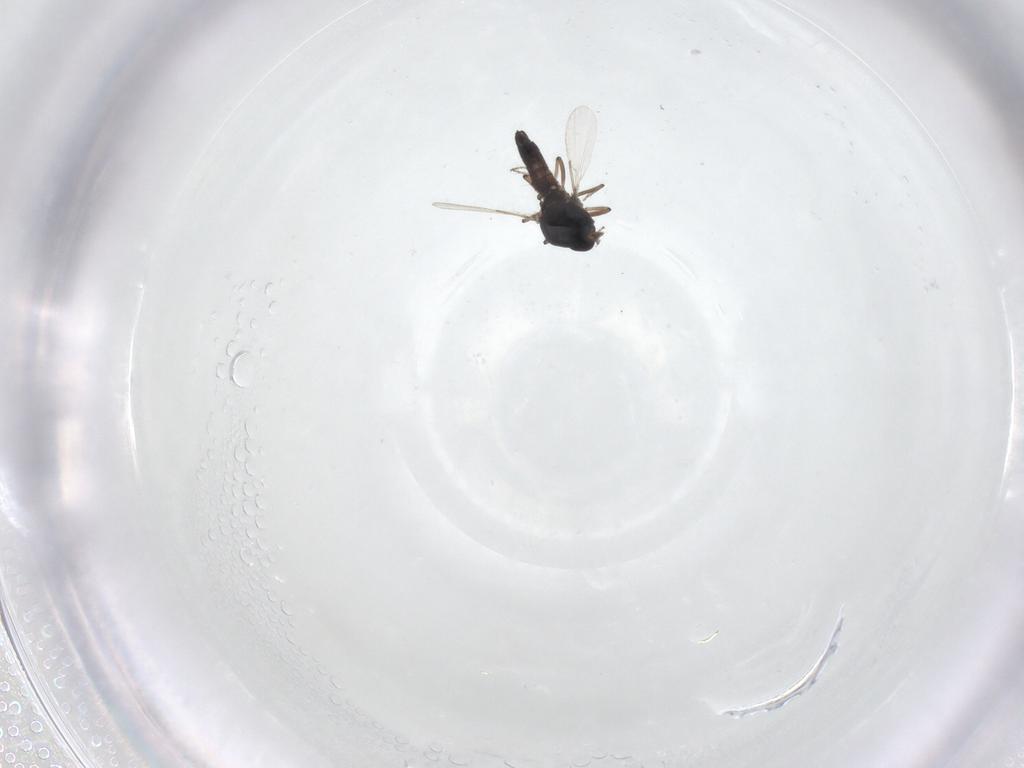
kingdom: Animalia
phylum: Arthropoda
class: Insecta
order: Diptera
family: Ceratopogonidae
